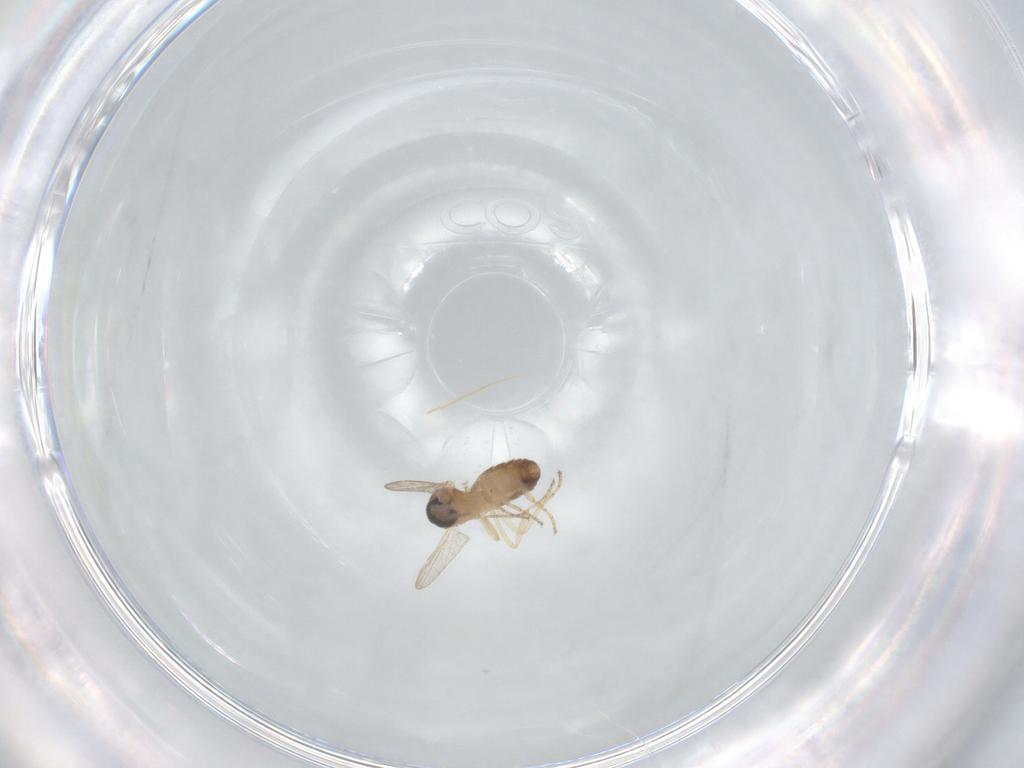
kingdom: Animalia
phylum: Arthropoda
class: Insecta
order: Diptera
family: Ceratopogonidae
